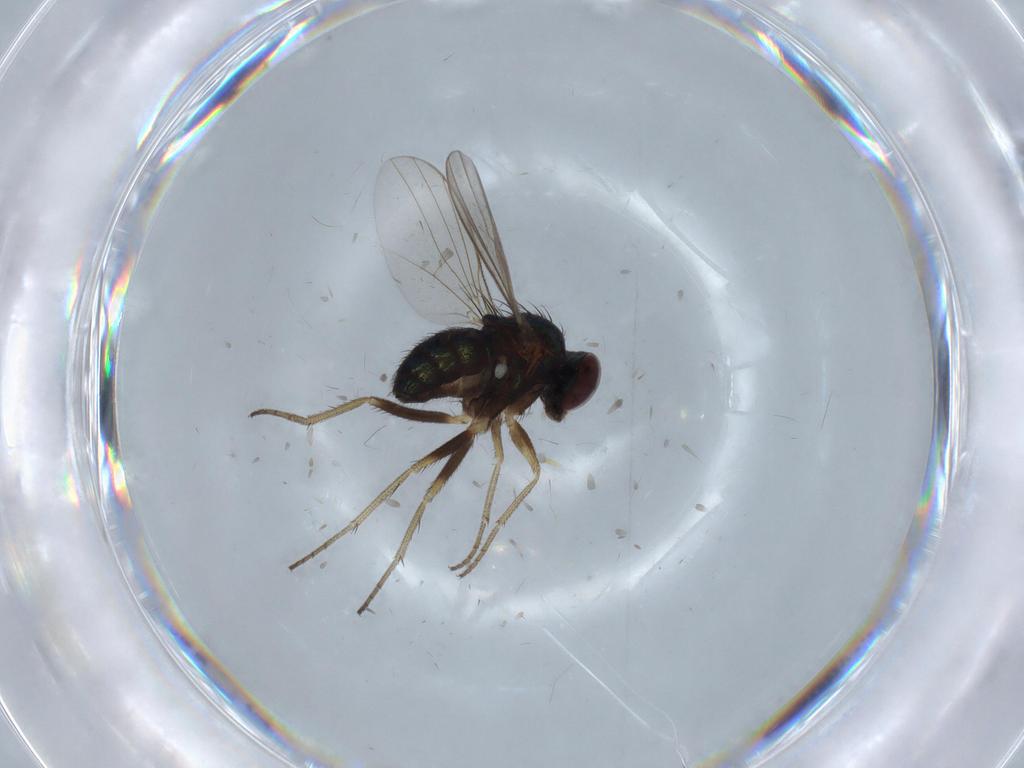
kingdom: Animalia
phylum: Arthropoda
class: Insecta
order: Diptera
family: Dolichopodidae
